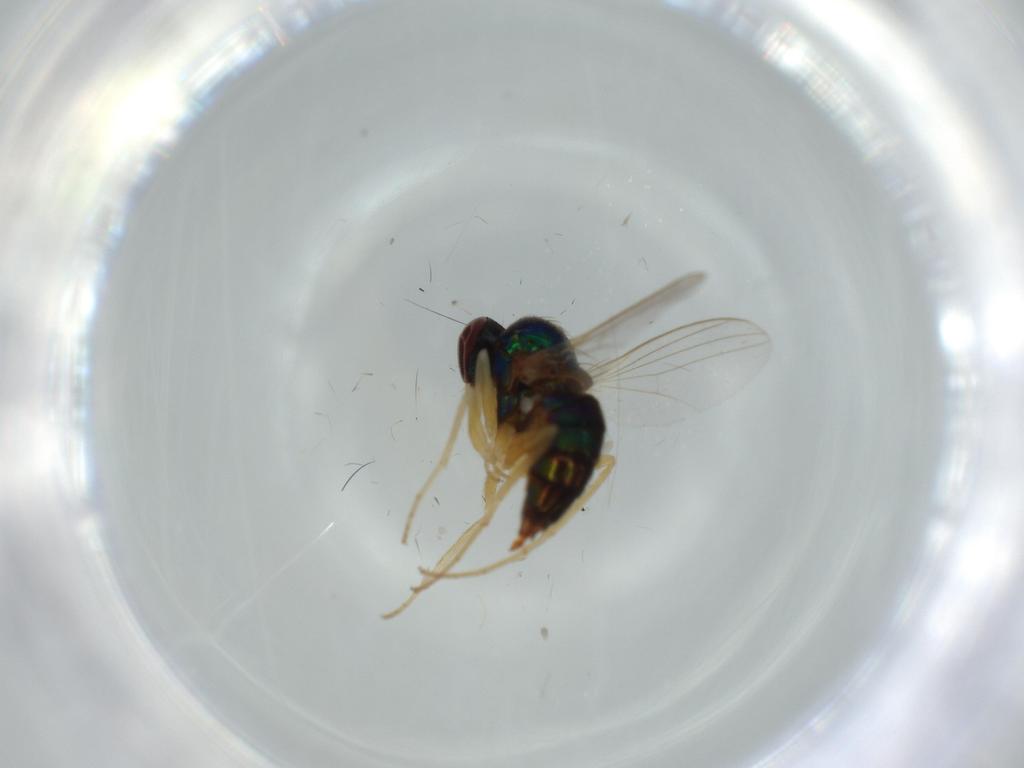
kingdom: Animalia
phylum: Arthropoda
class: Insecta
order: Diptera
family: Dolichopodidae
